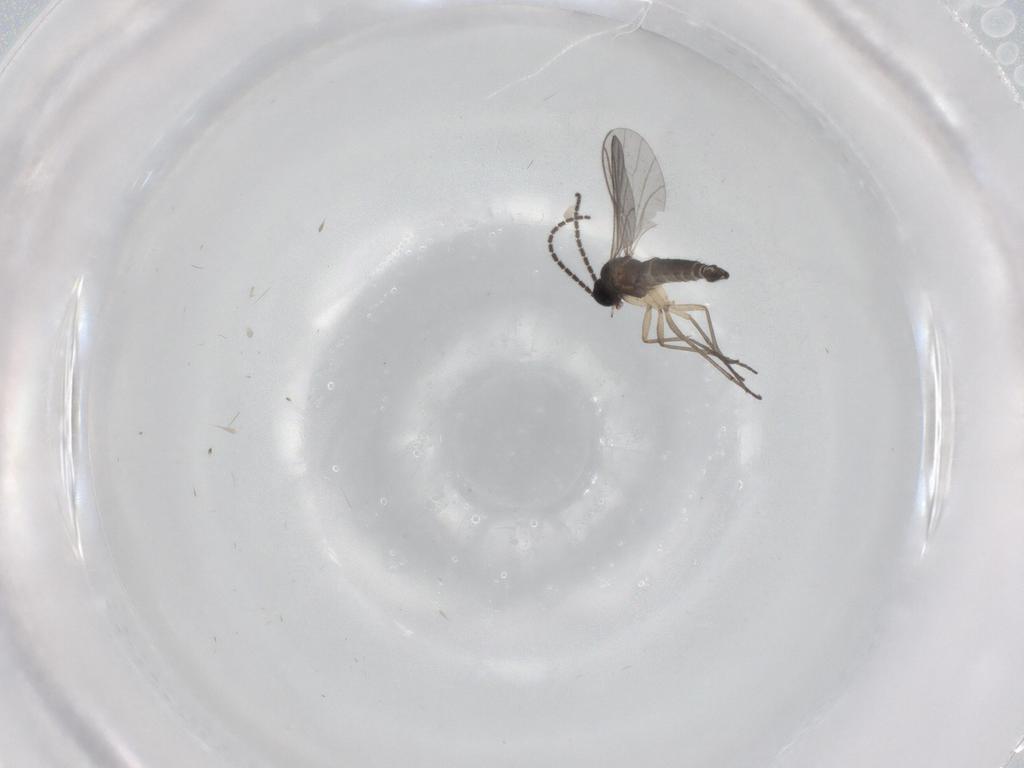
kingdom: Animalia
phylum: Arthropoda
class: Insecta
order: Diptera
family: Sciaridae
